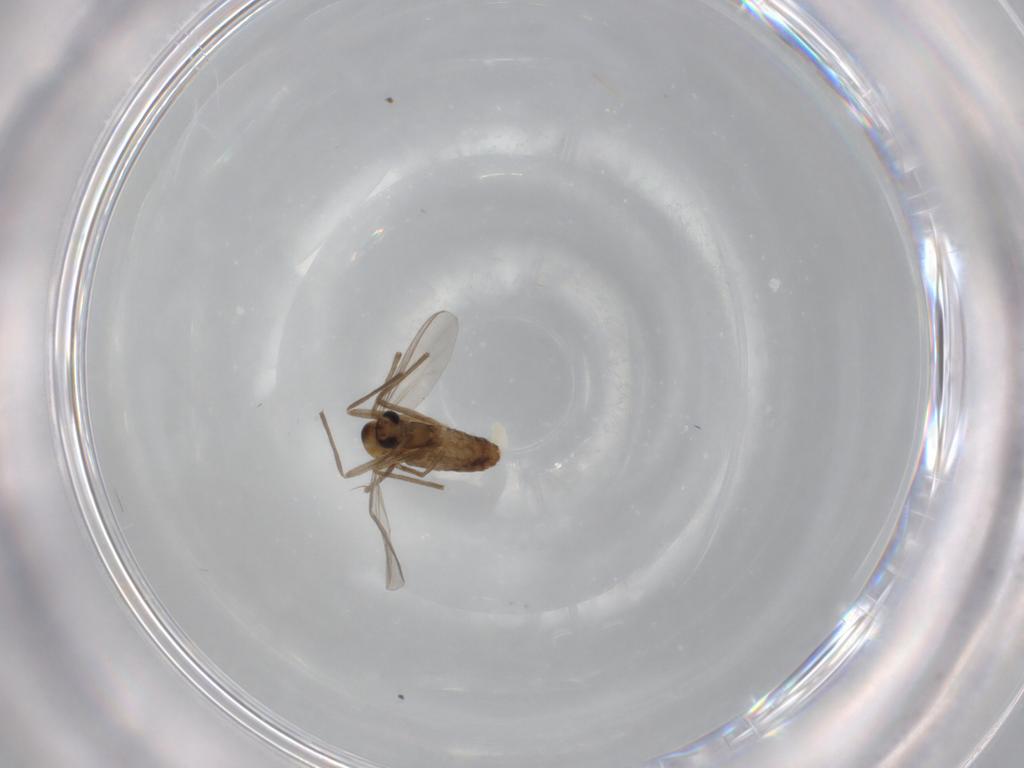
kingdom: Animalia
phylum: Arthropoda
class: Insecta
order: Diptera
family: Chironomidae
